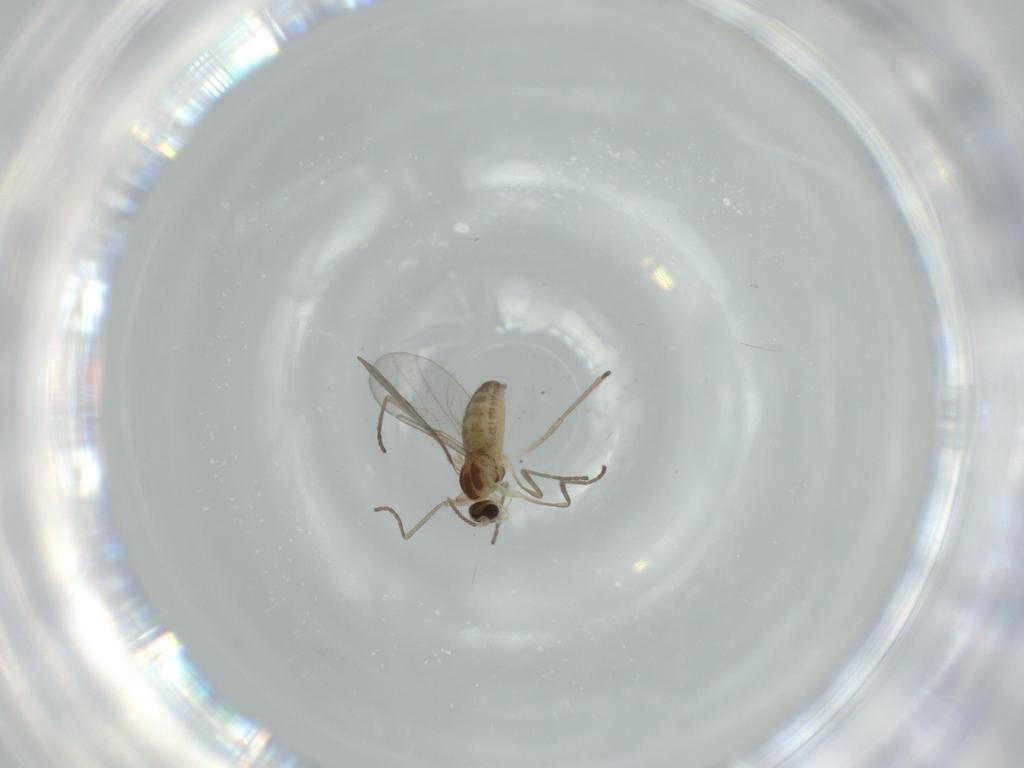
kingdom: Animalia
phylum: Arthropoda
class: Insecta
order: Diptera
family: Cecidomyiidae
